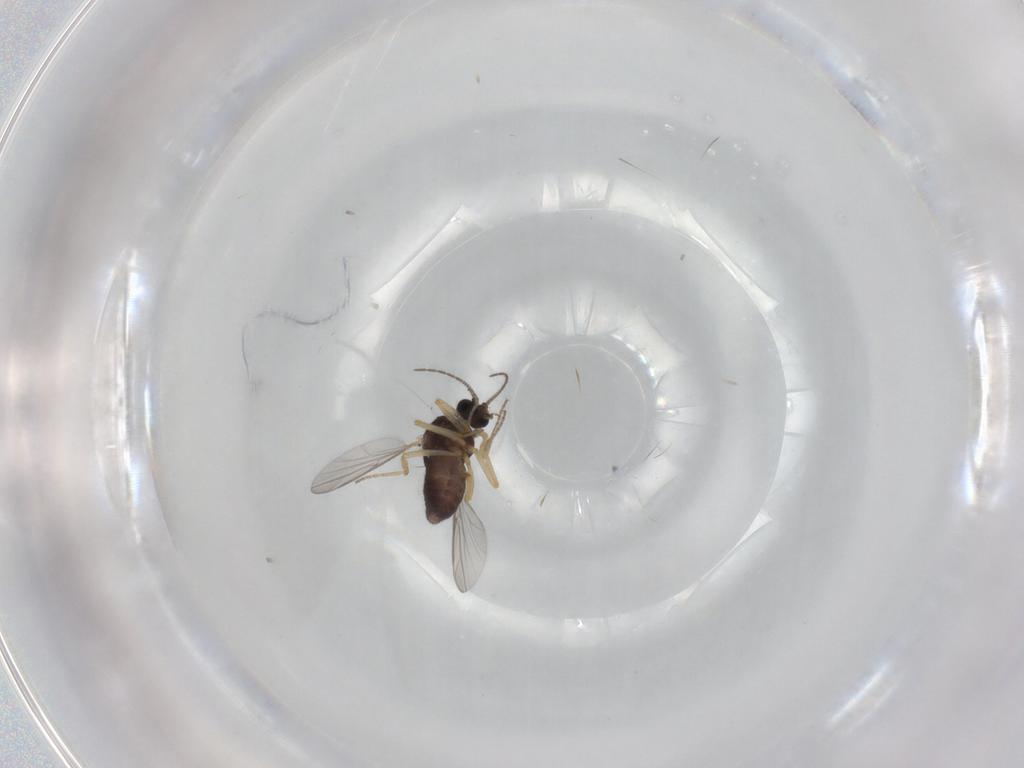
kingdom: Animalia
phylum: Arthropoda
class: Insecta
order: Diptera
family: Ceratopogonidae
